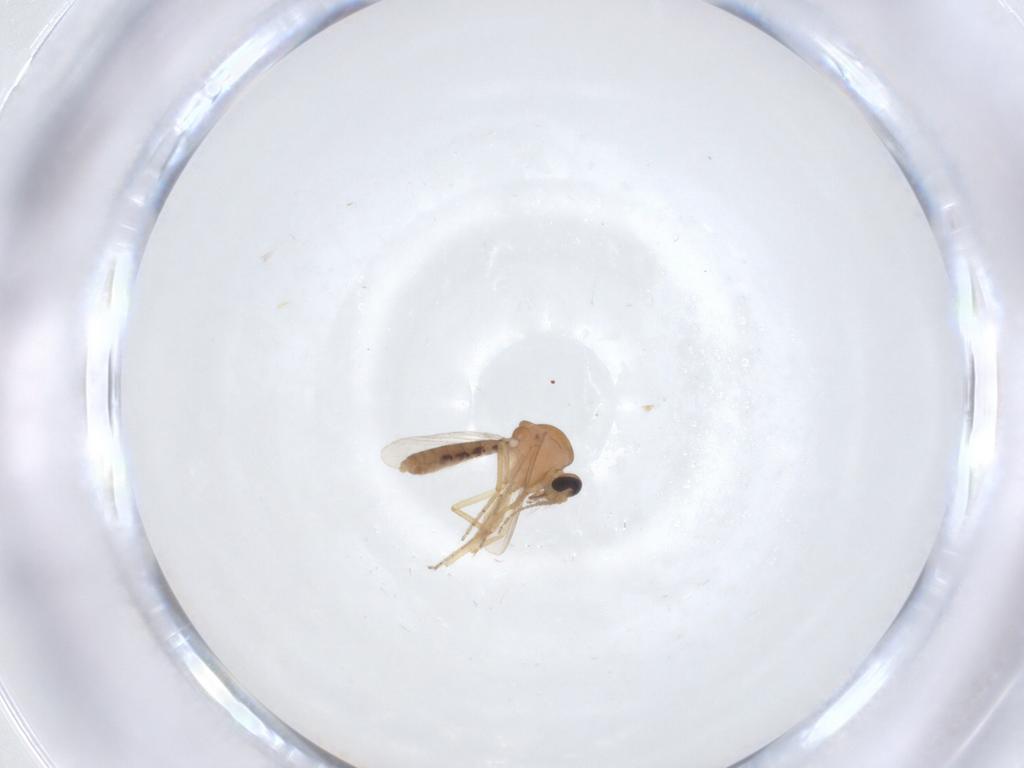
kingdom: Animalia
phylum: Arthropoda
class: Insecta
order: Diptera
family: Ceratopogonidae
